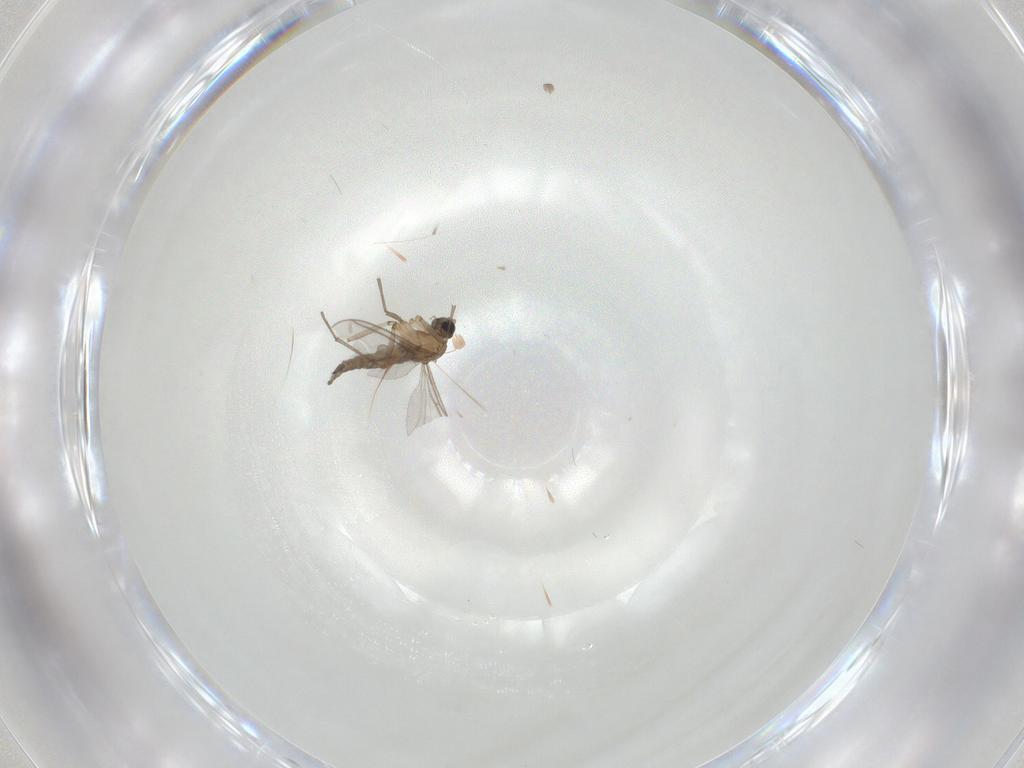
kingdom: Animalia
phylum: Arthropoda
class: Insecta
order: Diptera
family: Sciaridae
